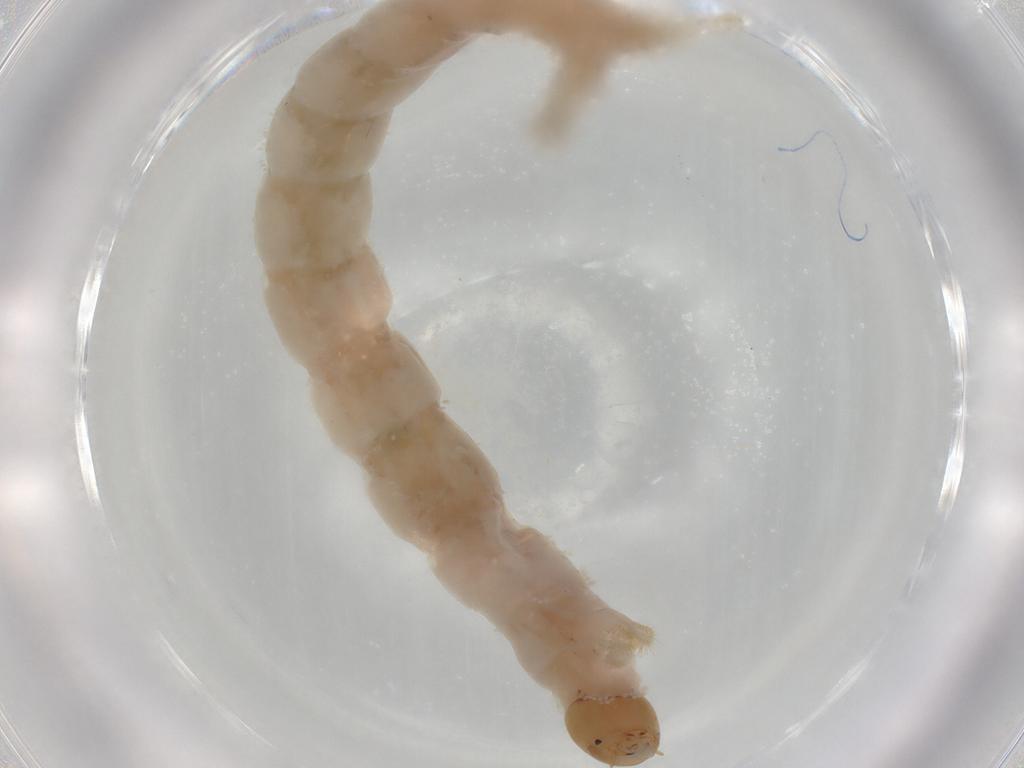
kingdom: Animalia
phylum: Arthropoda
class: Insecta
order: Diptera
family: Chironomidae
